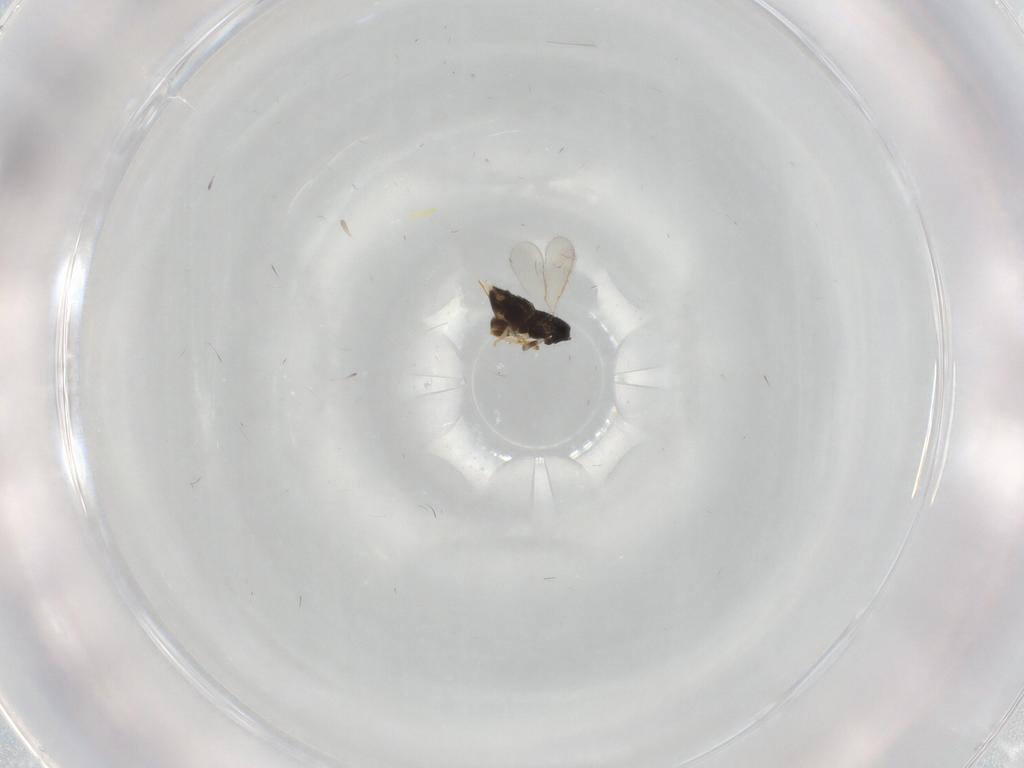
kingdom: Animalia
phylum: Arthropoda
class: Insecta
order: Hymenoptera
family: Aphelinidae
